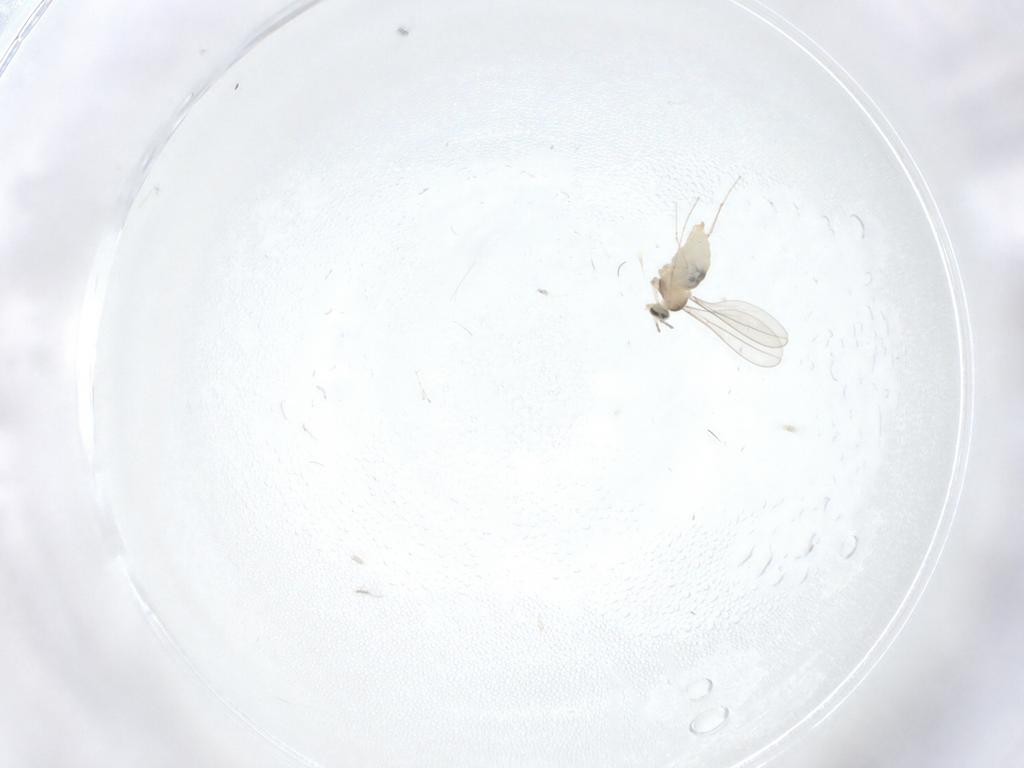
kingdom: Animalia
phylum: Arthropoda
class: Insecta
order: Diptera
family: Cecidomyiidae
